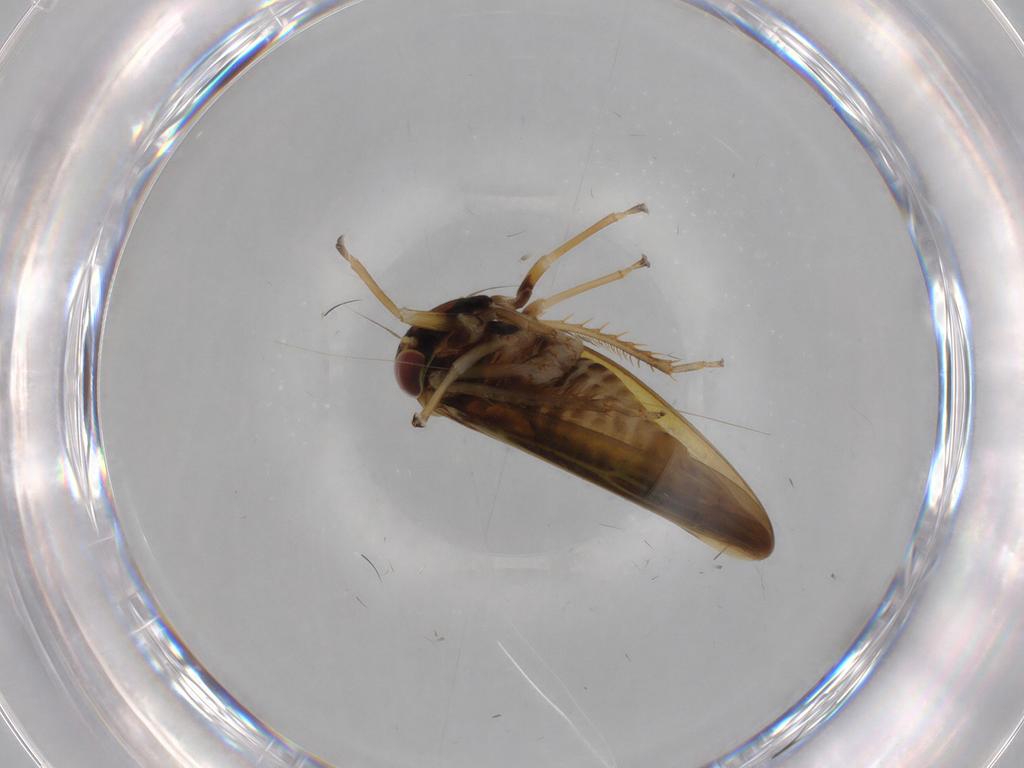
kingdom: Animalia
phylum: Arthropoda
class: Insecta
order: Hemiptera
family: Cicadellidae
